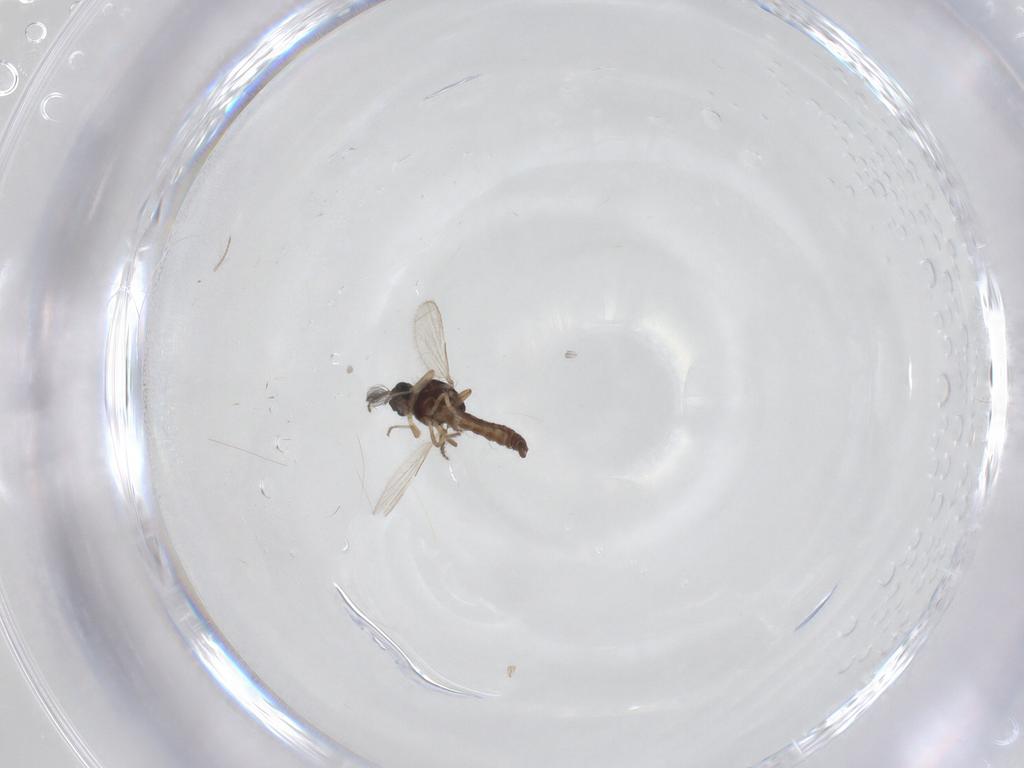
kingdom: Animalia
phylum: Arthropoda
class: Insecta
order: Diptera
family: Ceratopogonidae
